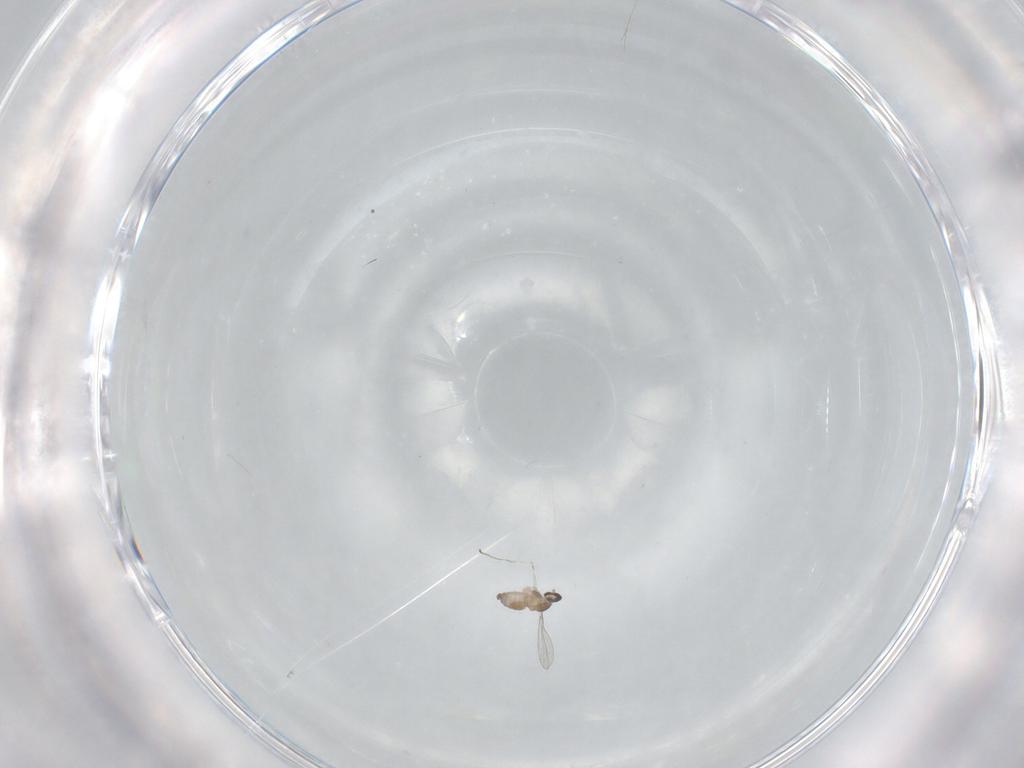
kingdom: Animalia
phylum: Arthropoda
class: Insecta
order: Diptera
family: Cecidomyiidae
